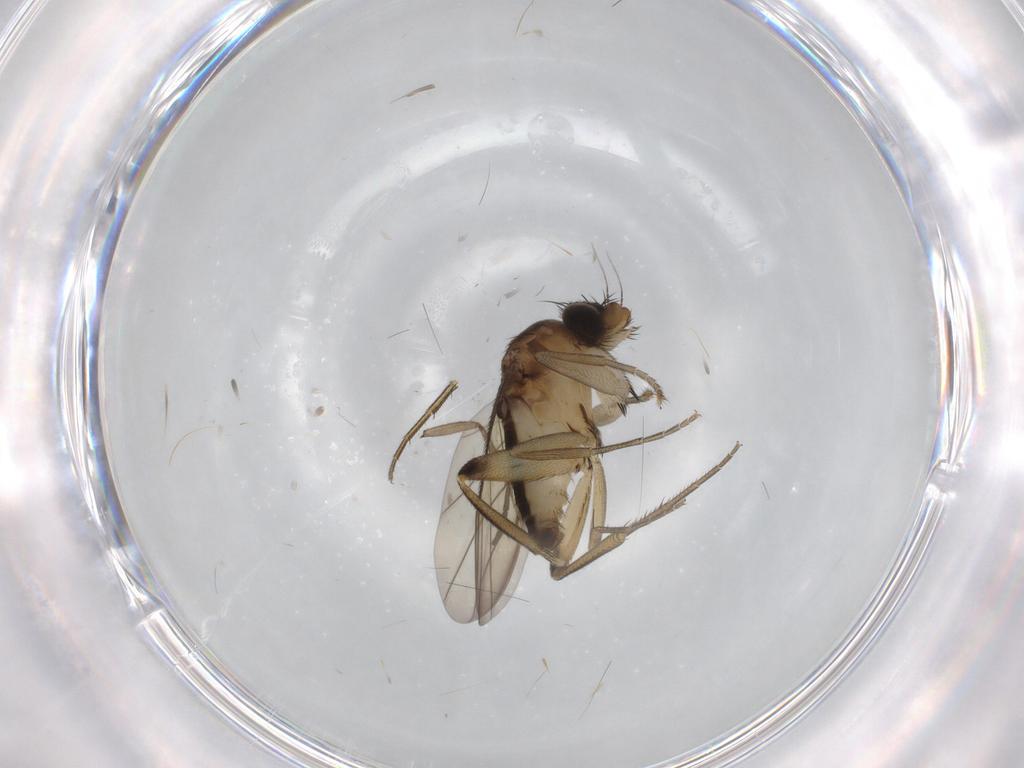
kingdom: Animalia
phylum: Arthropoda
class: Insecta
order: Diptera
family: Phoridae
